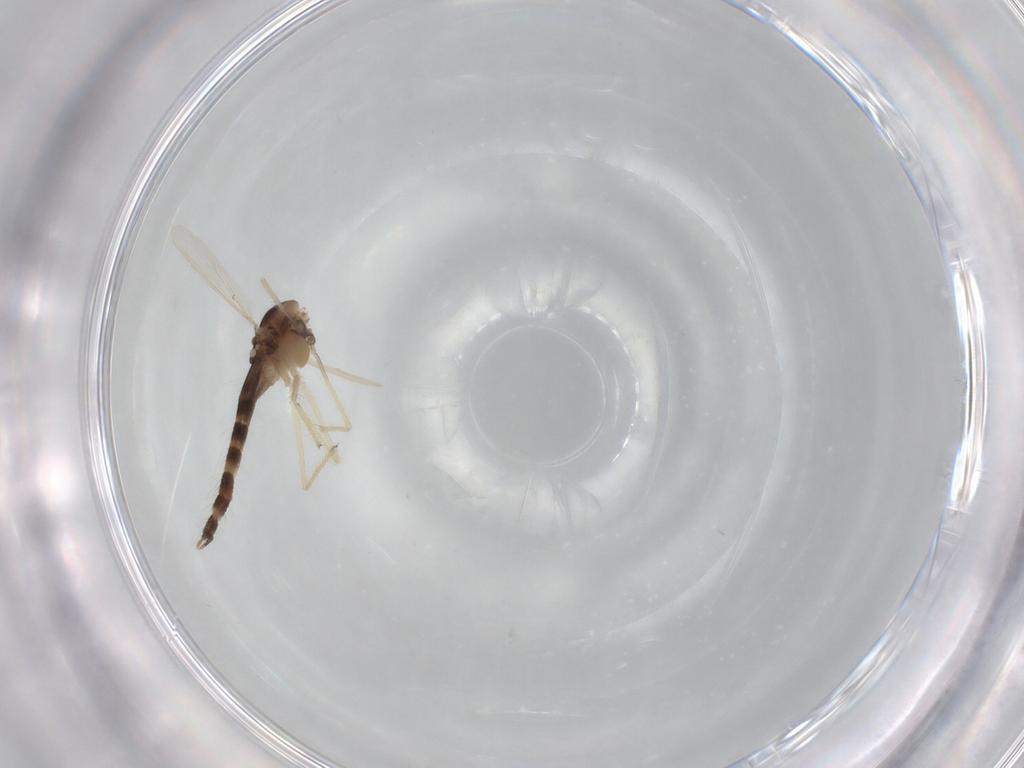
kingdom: Animalia
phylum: Arthropoda
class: Insecta
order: Diptera
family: Chironomidae
